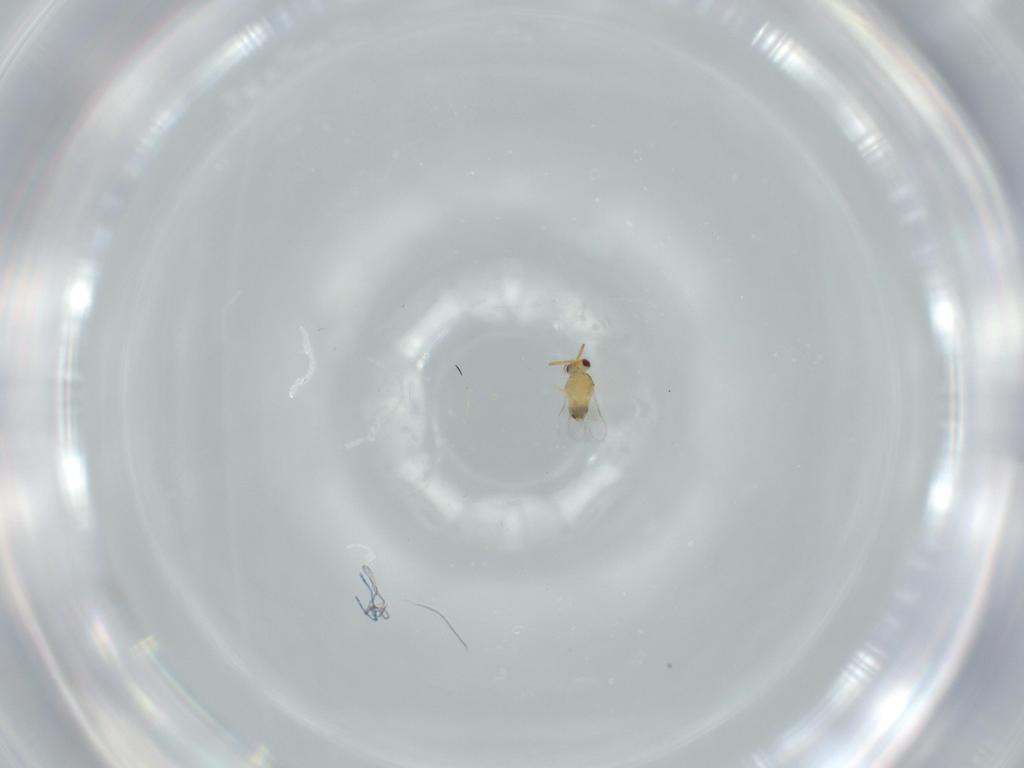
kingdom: Animalia
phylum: Arthropoda
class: Insecta
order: Hymenoptera
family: Aphelinidae
